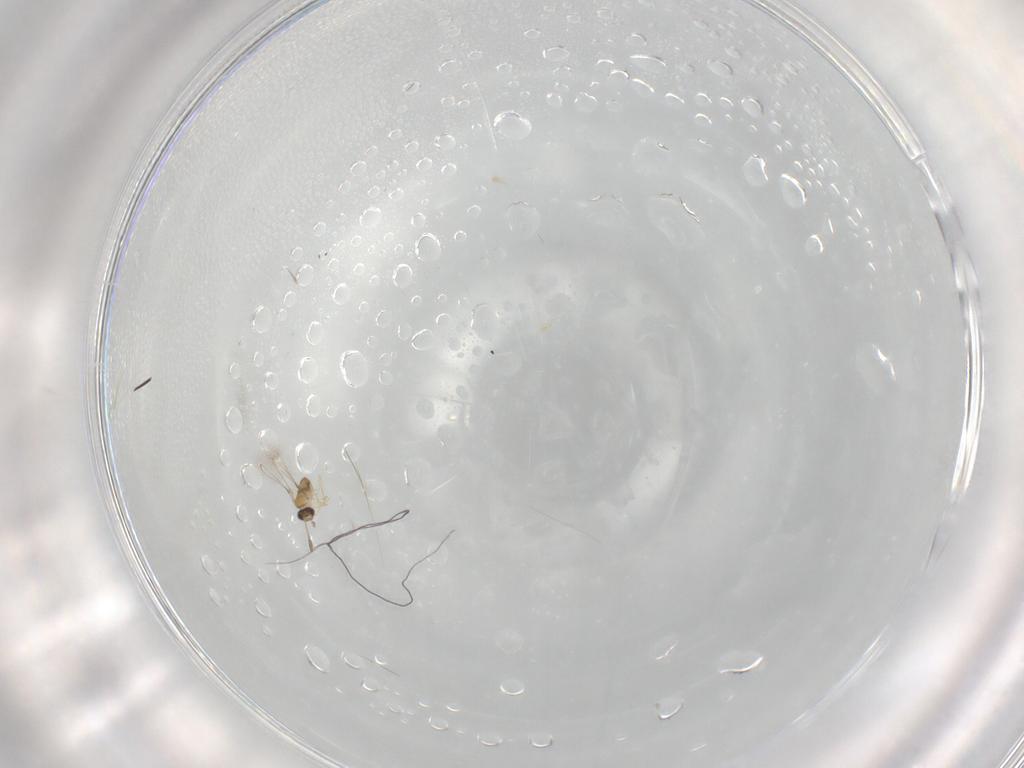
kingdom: Animalia
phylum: Arthropoda
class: Insecta
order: Hymenoptera
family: Mymaridae
